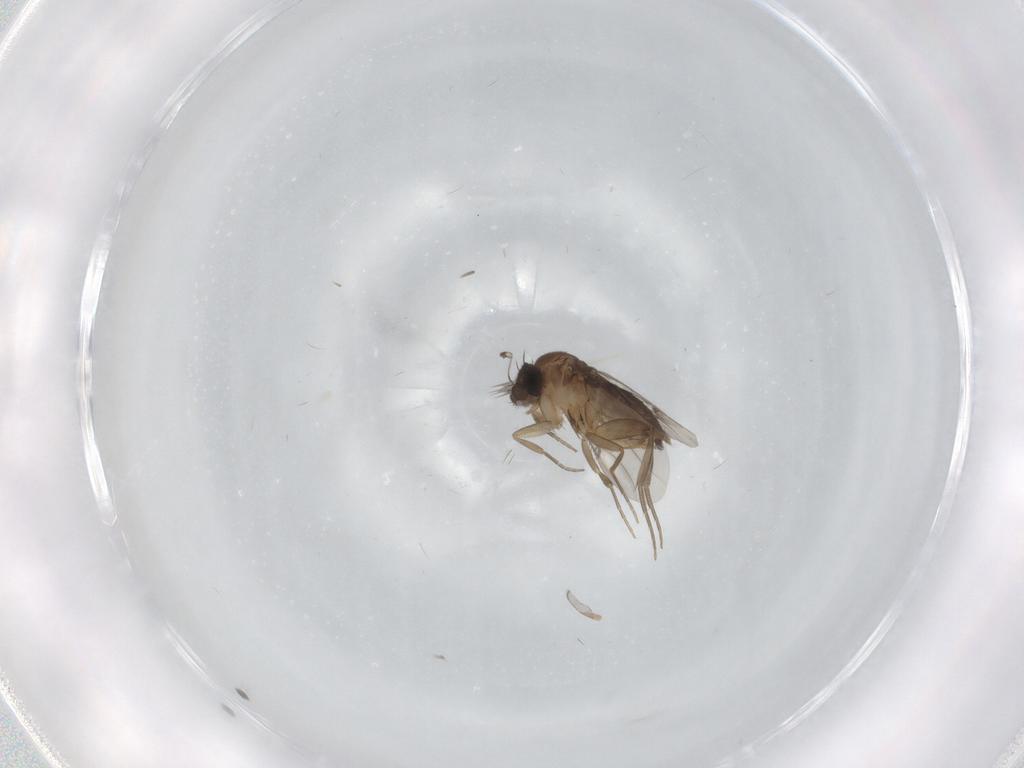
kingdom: Animalia
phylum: Arthropoda
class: Insecta
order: Diptera
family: Phoridae
